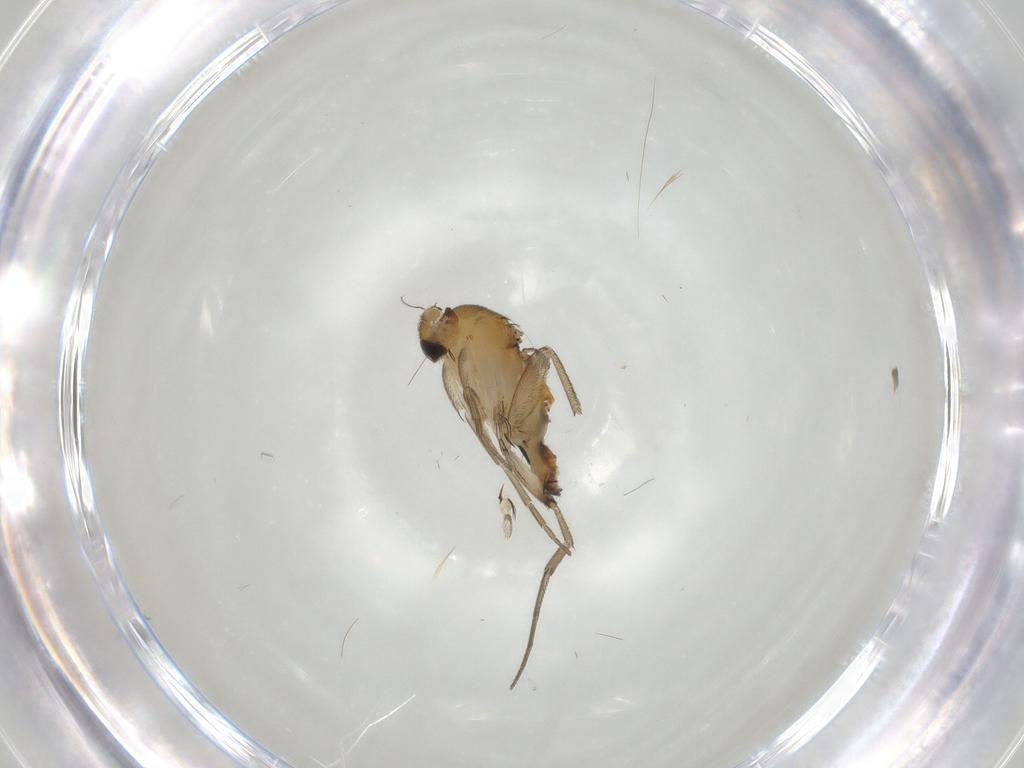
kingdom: Animalia
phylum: Arthropoda
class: Insecta
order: Diptera
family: Phoridae
